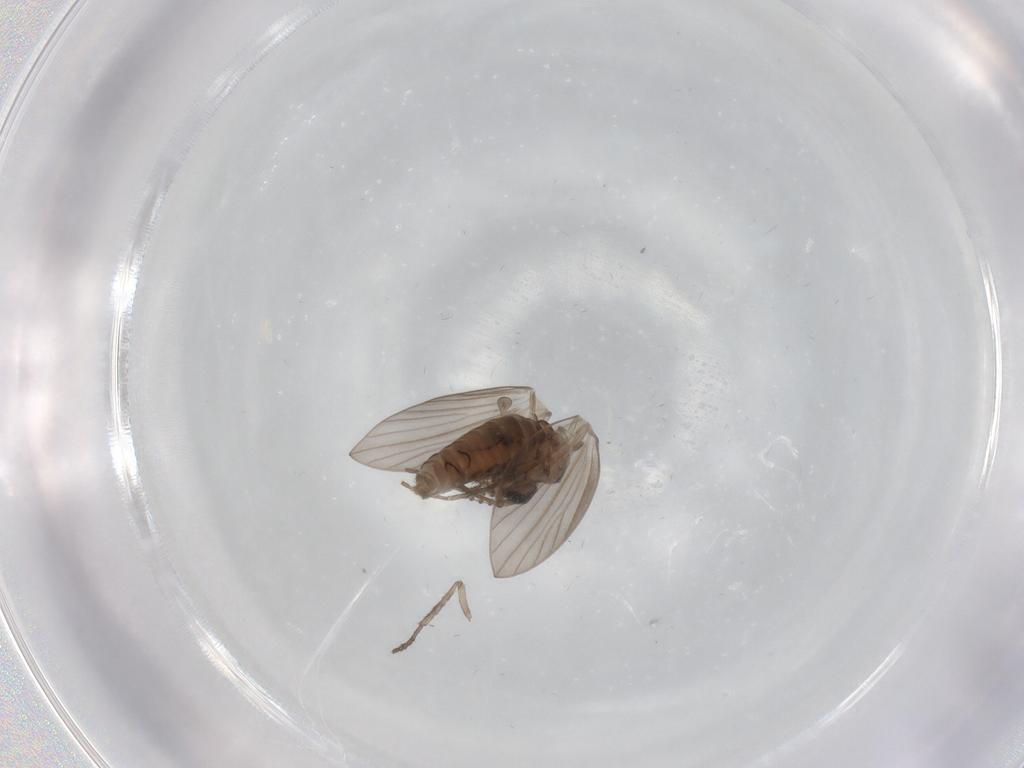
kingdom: Animalia
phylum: Arthropoda
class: Insecta
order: Diptera
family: Psychodidae
